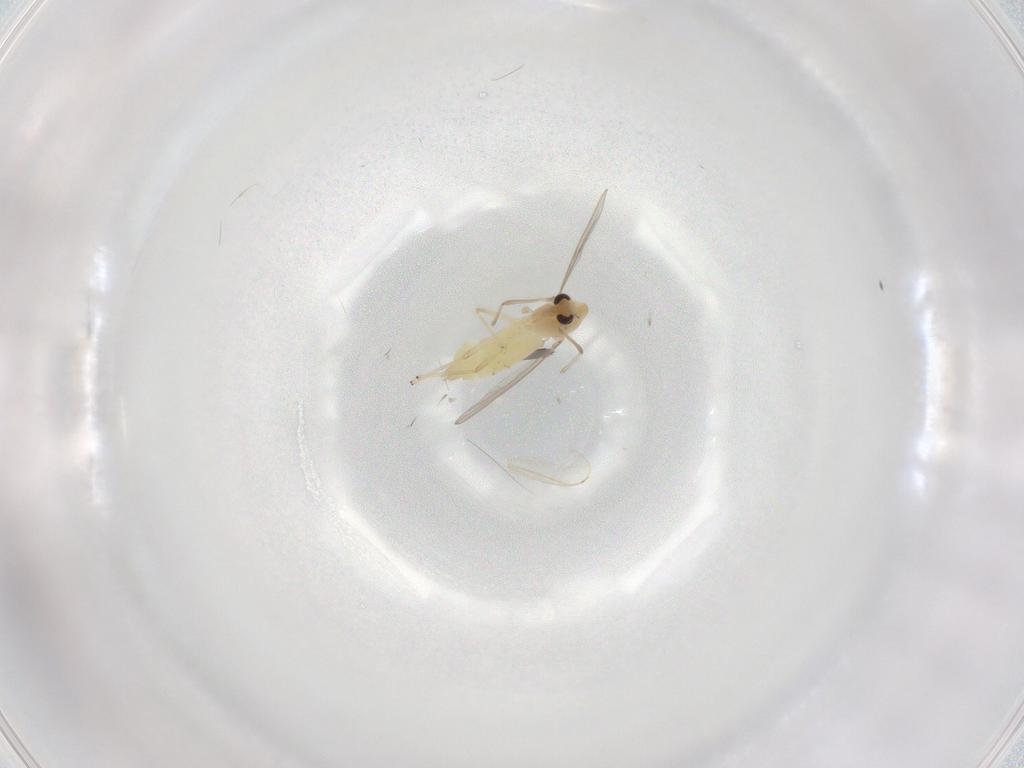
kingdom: Animalia
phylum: Arthropoda
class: Insecta
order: Diptera
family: Chironomidae
